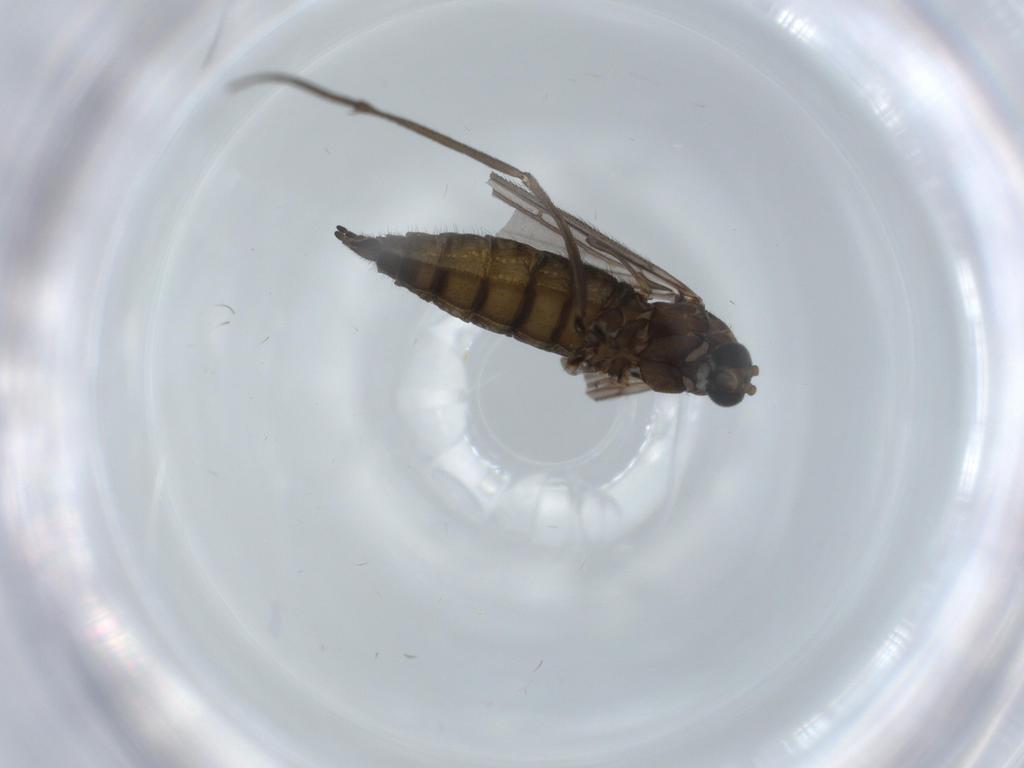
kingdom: Animalia
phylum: Arthropoda
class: Insecta
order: Diptera
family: Sciaridae
